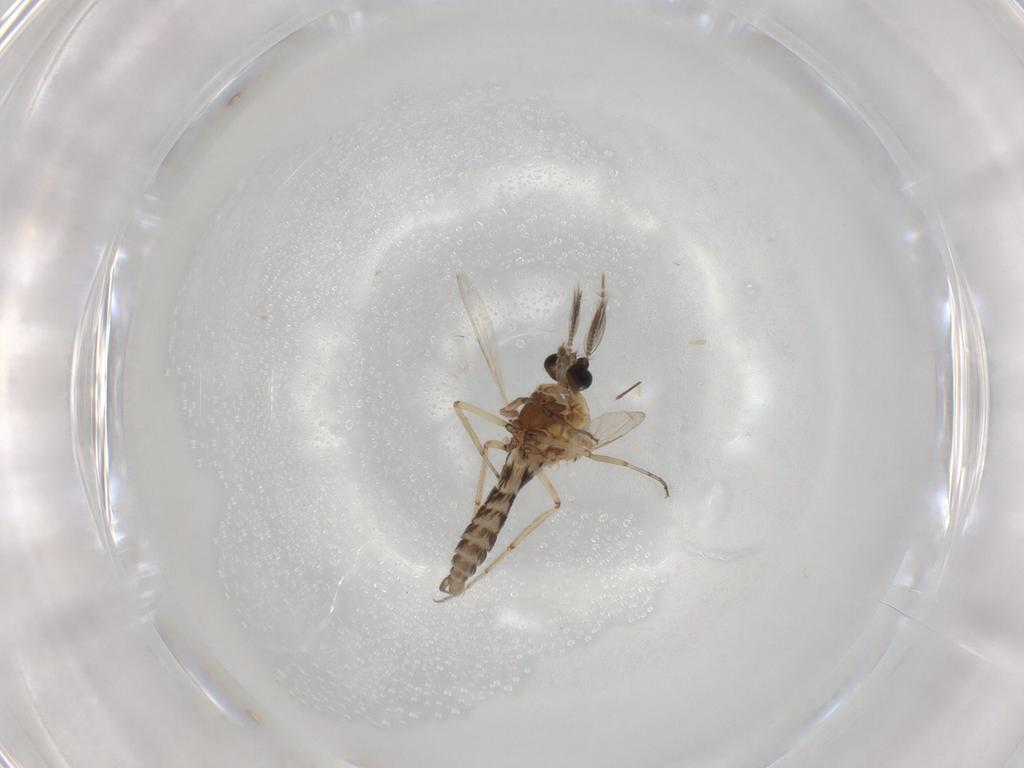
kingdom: Animalia
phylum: Arthropoda
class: Insecta
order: Diptera
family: Ceratopogonidae
